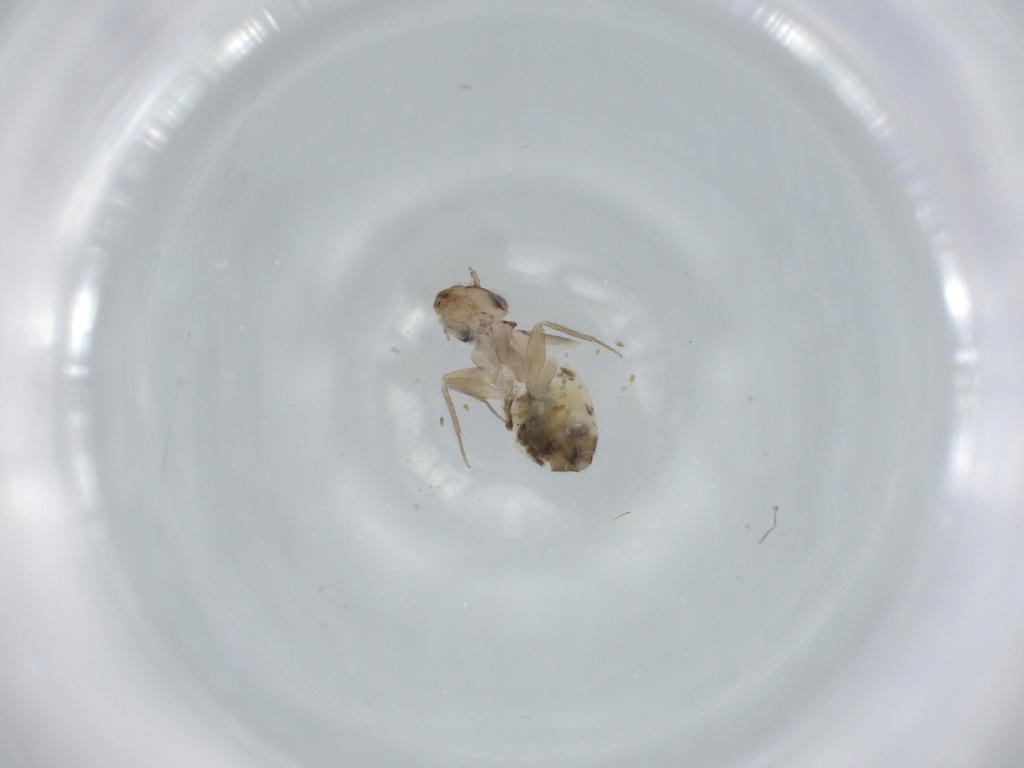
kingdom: Animalia
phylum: Arthropoda
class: Insecta
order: Psocodea
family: Lepidopsocidae
